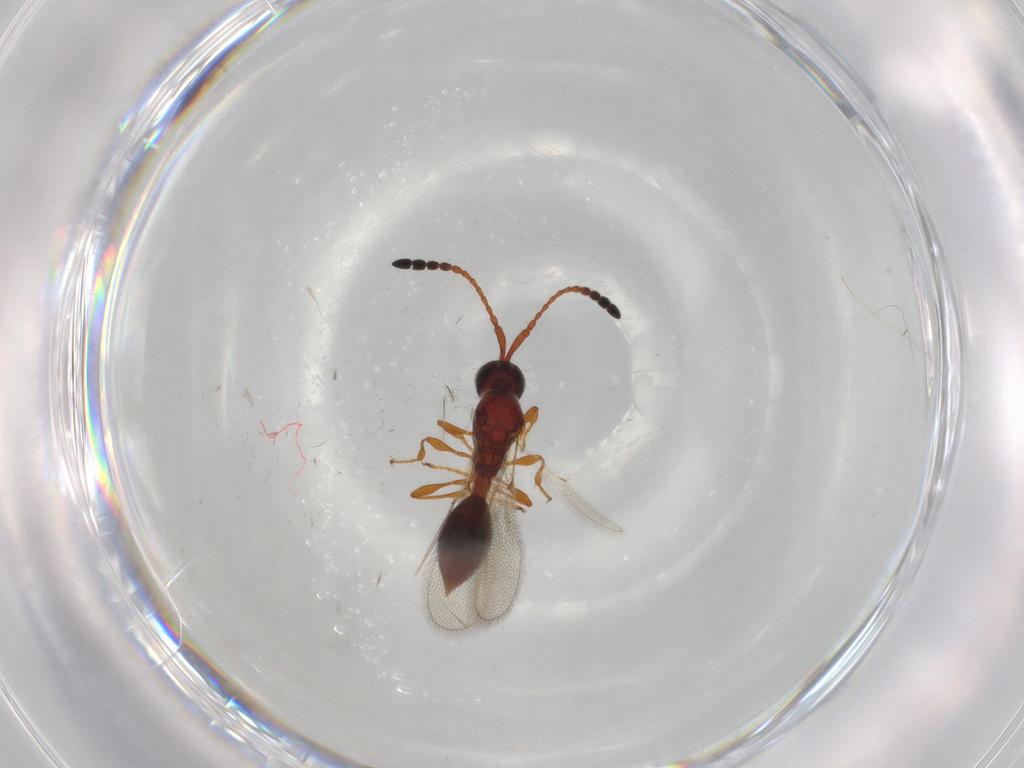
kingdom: Animalia
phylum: Arthropoda
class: Insecta
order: Hymenoptera
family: Diapriidae
